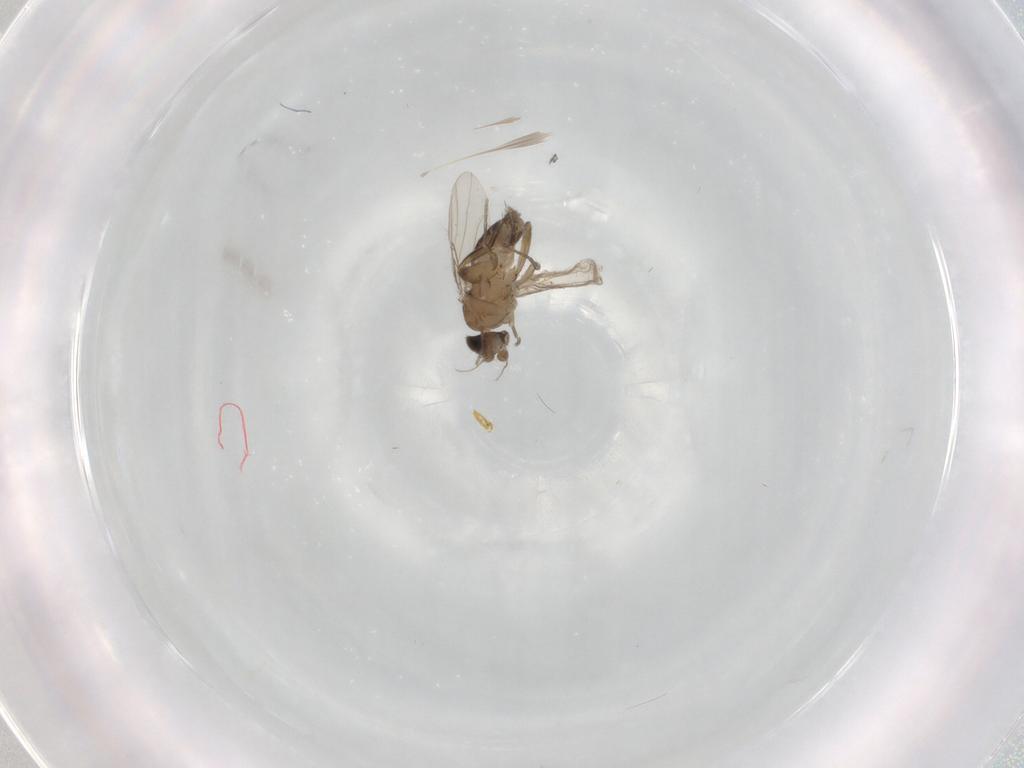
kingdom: Animalia
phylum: Arthropoda
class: Insecta
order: Diptera
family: Phoridae
